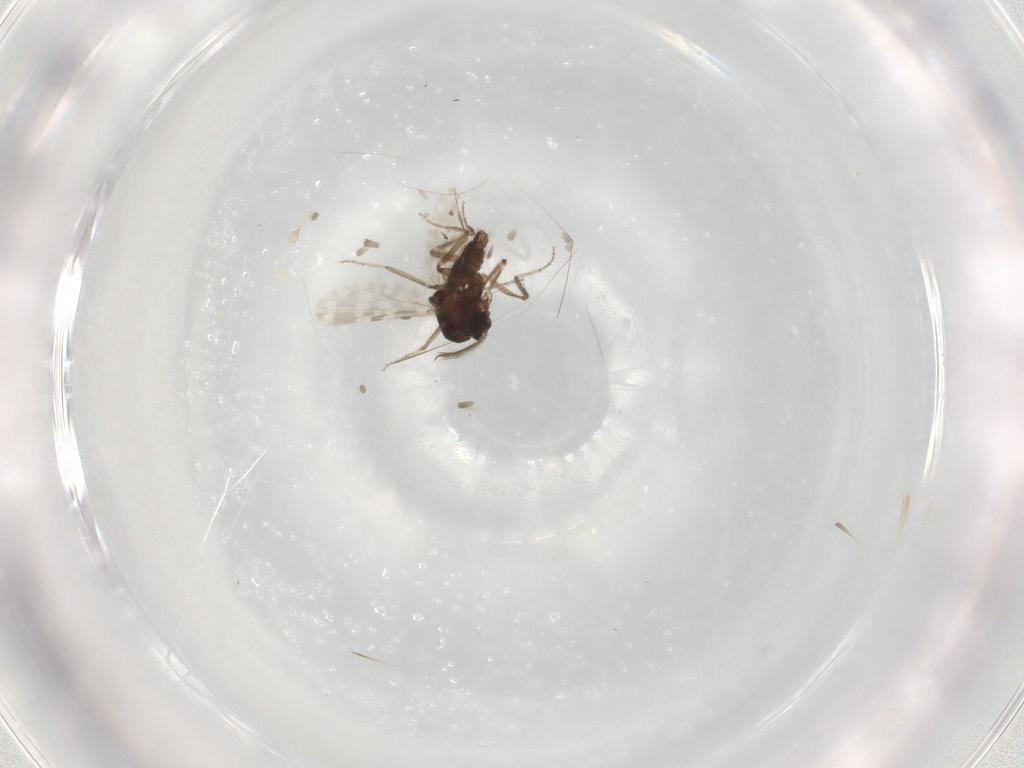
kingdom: Animalia
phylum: Arthropoda
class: Insecta
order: Diptera
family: Cecidomyiidae
